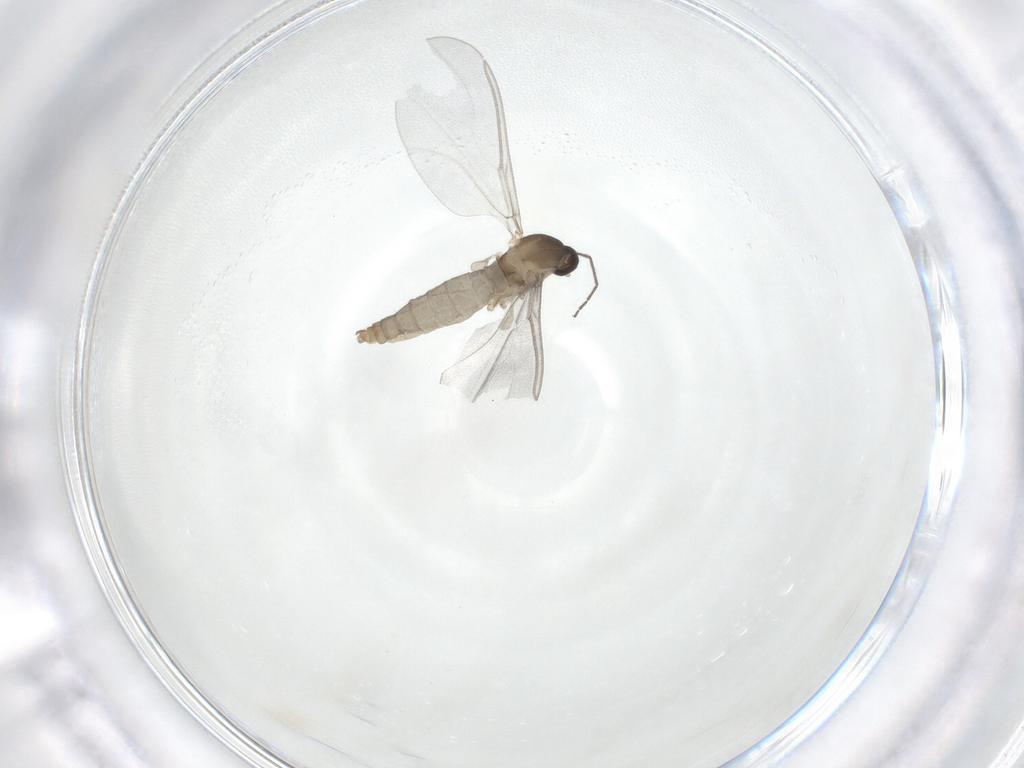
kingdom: Animalia
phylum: Arthropoda
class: Insecta
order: Diptera
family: Cecidomyiidae
